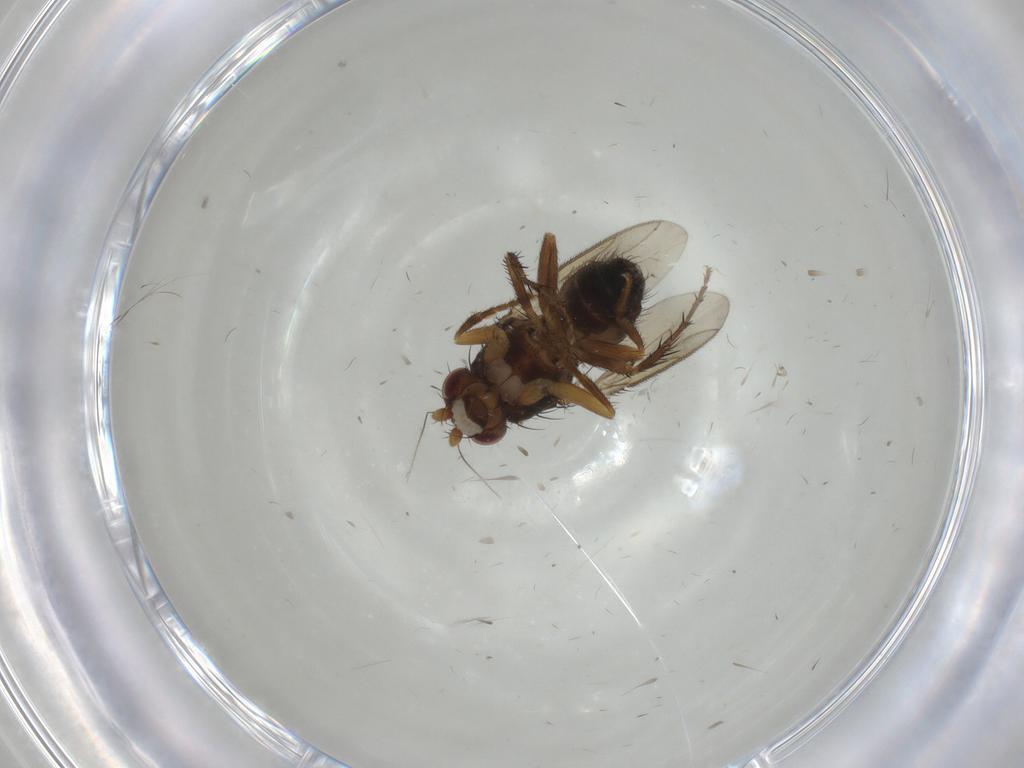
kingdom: Animalia
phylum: Arthropoda
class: Insecta
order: Diptera
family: Sphaeroceridae
